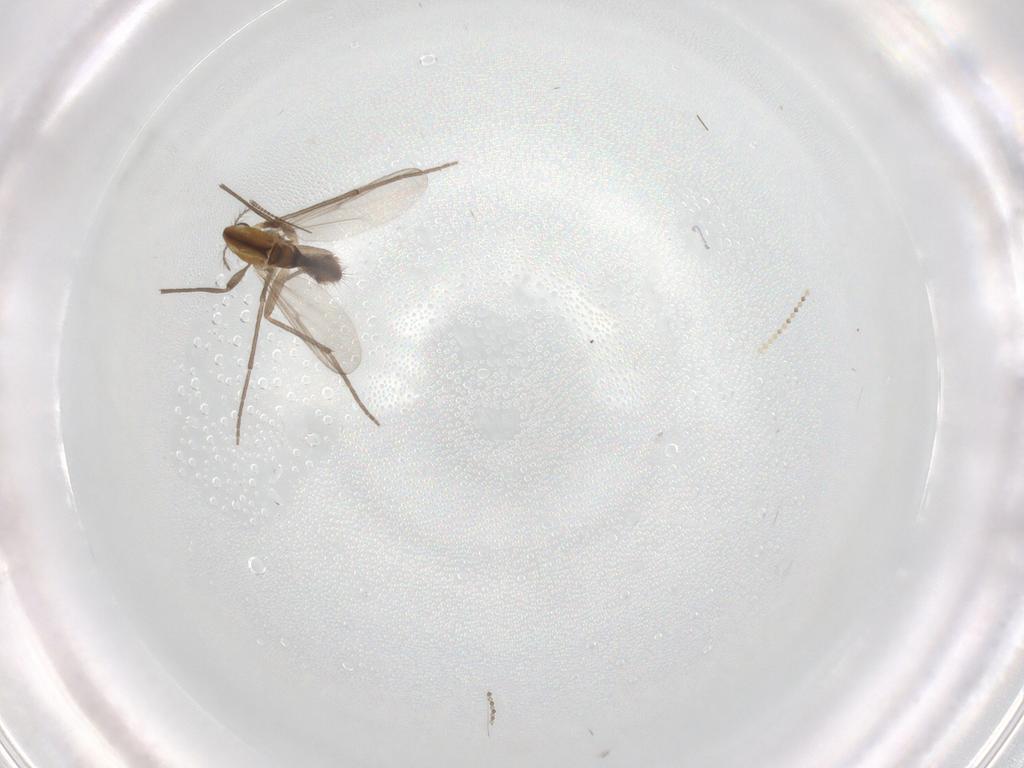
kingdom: Animalia
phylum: Arthropoda
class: Insecta
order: Diptera
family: Chironomidae
